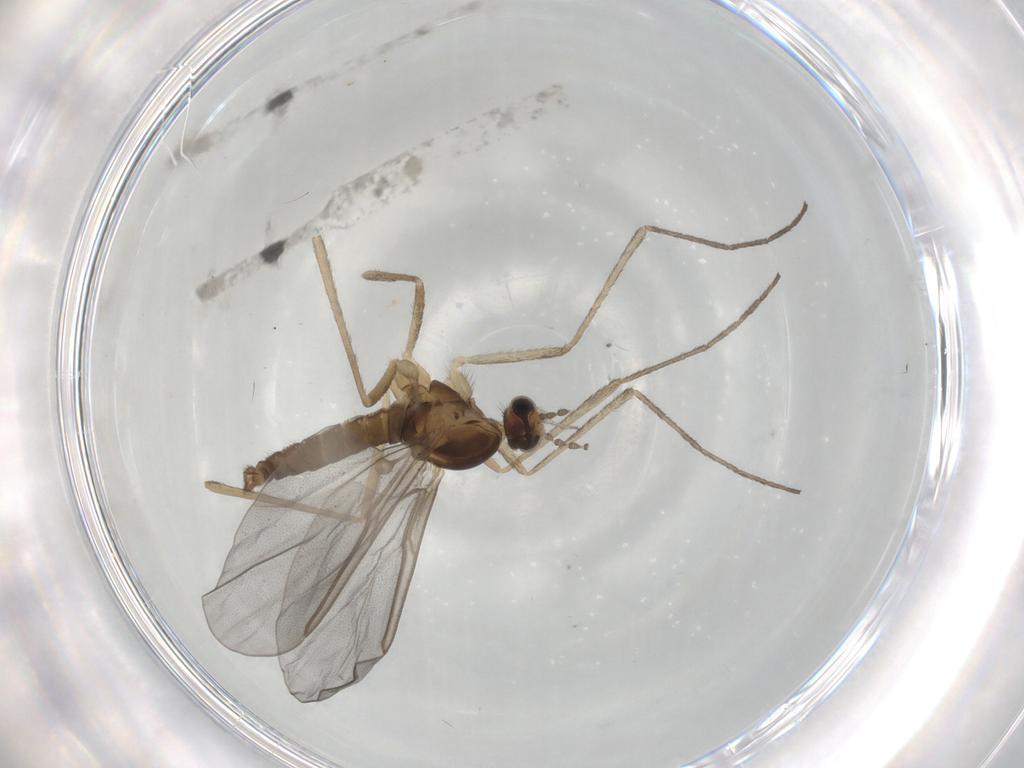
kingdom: Animalia
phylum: Arthropoda
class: Insecta
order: Diptera
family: Cecidomyiidae
